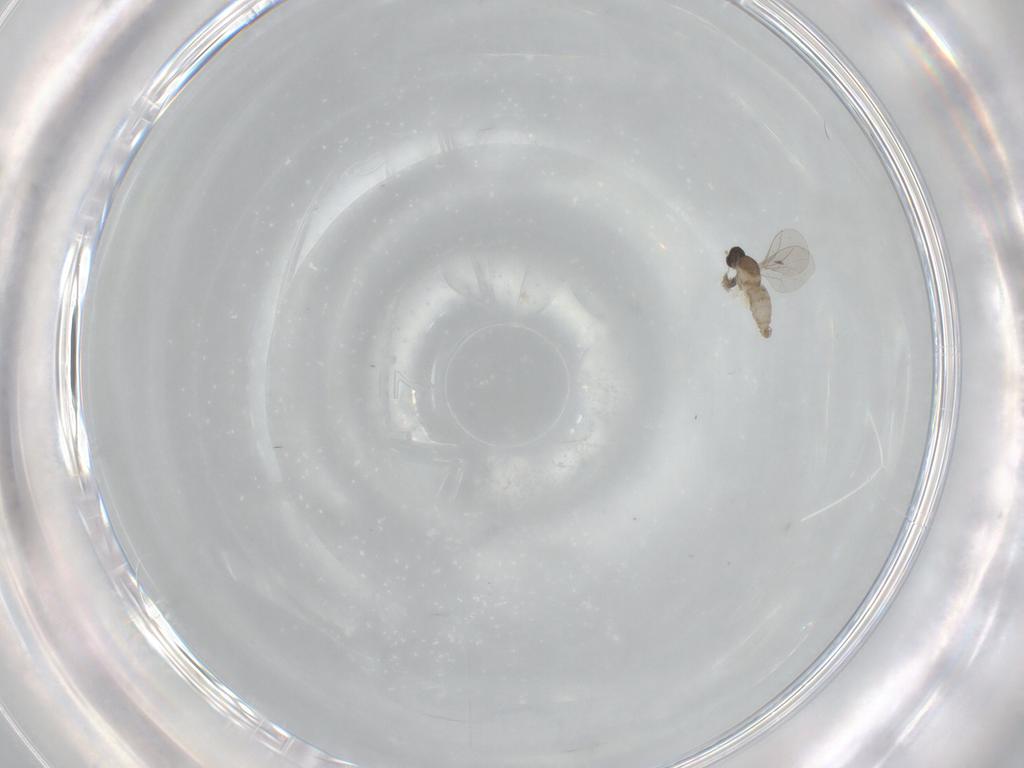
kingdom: Animalia
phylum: Arthropoda
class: Insecta
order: Diptera
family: Cecidomyiidae
